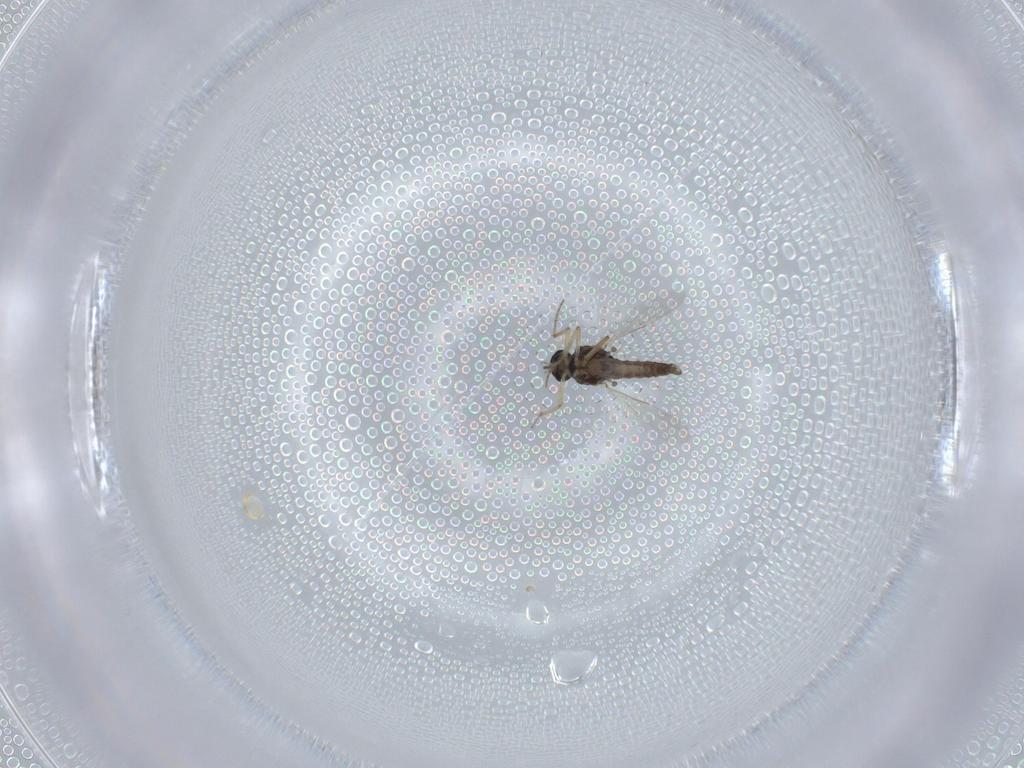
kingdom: Animalia
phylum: Arthropoda
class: Insecta
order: Diptera
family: Ceratopogonidae
